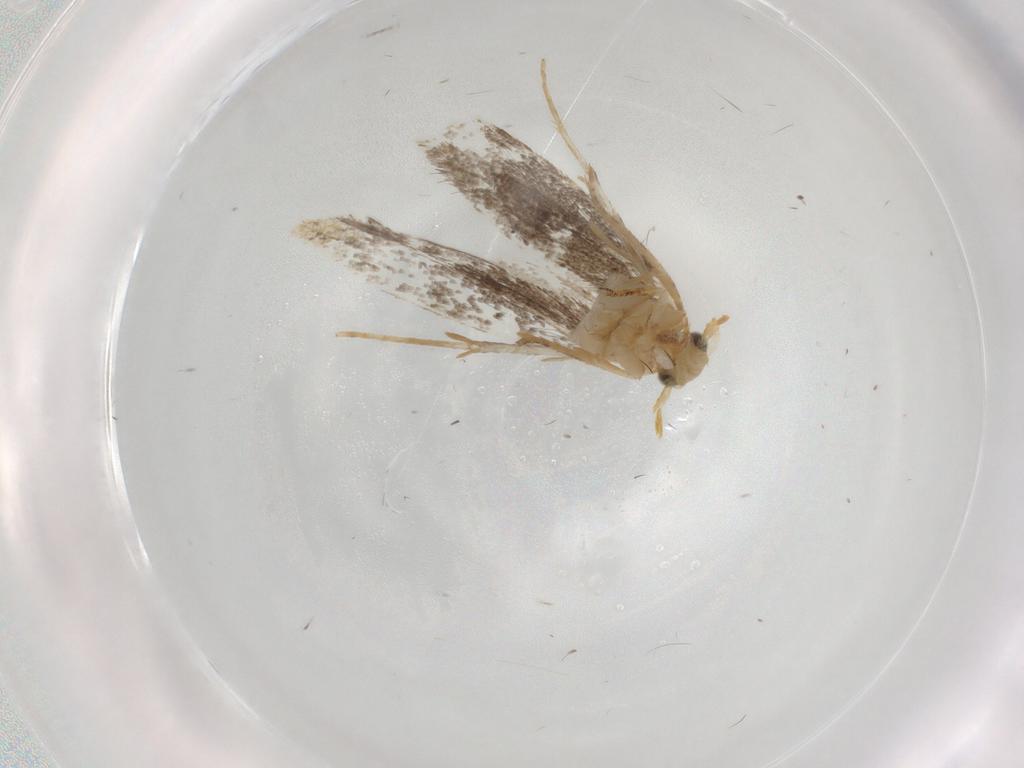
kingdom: Animalia
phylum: Arthropoda
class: Insecta
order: Lepidoptera
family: Dryadaulidae
